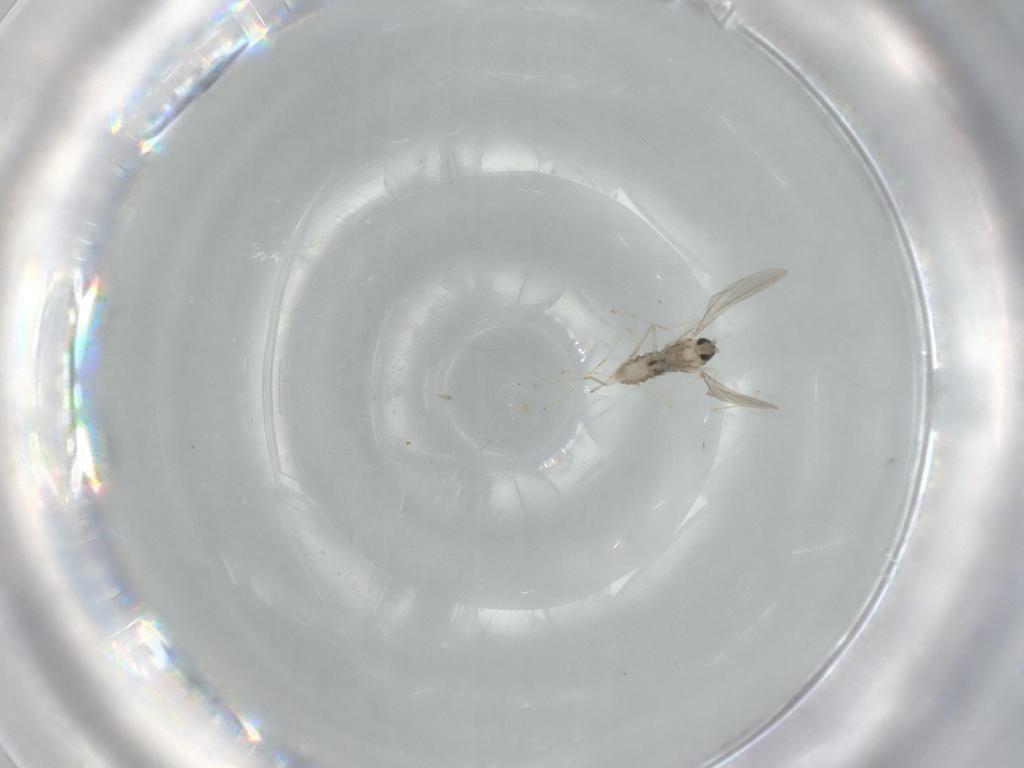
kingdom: Animalia
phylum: Arthropoda
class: Insecta
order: Diptera
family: Cecidomyiidae
